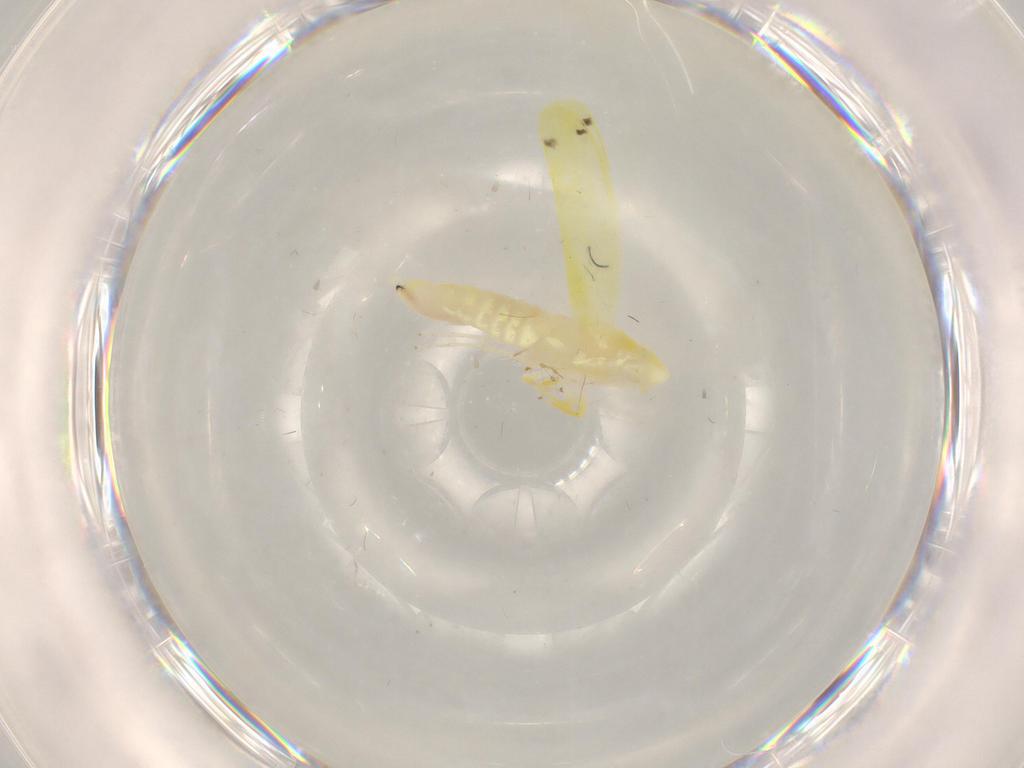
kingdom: Animalia
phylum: Arthropoda
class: Insecta
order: Hemiptera
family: Cicadellidae
